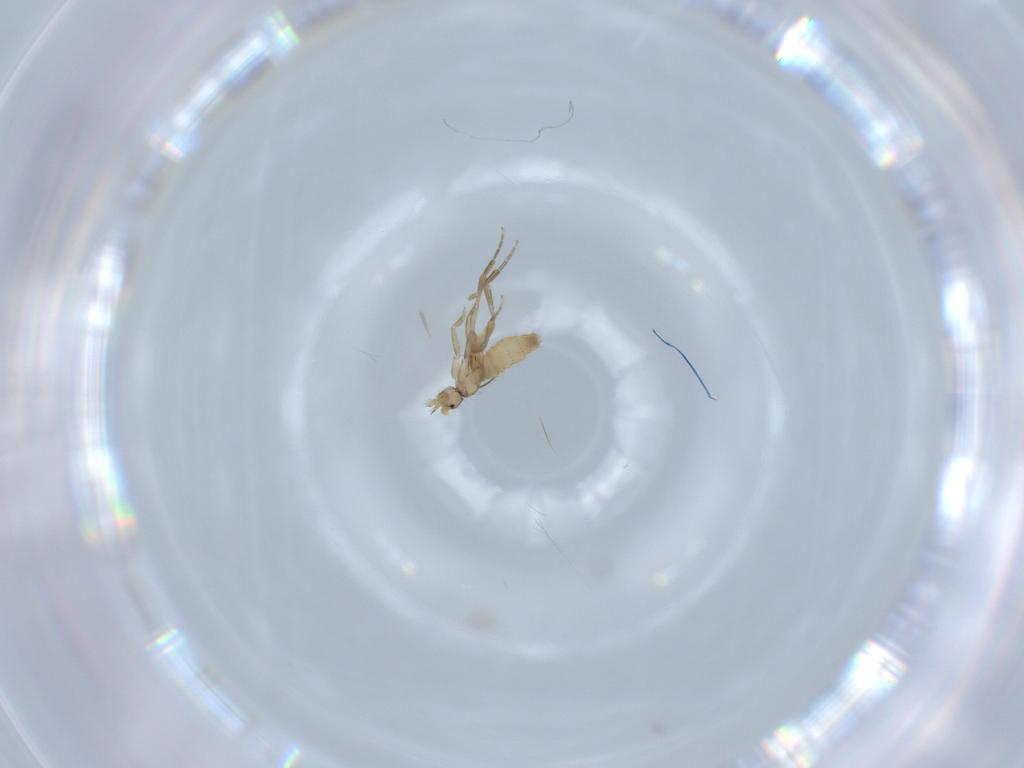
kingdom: Animalia
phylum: Arthropoda
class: Insecta
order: Diptera
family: Phoridae
